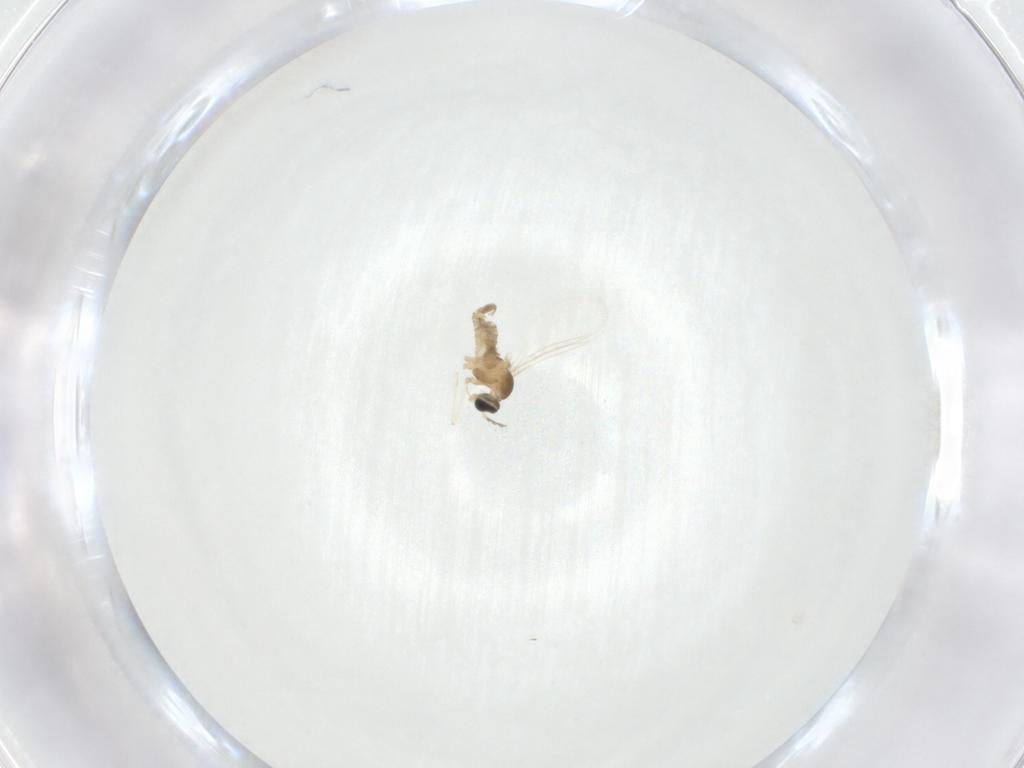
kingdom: Animalia
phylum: Arthropoda
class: Insecta
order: Diptera
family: Cecidomyiidae
